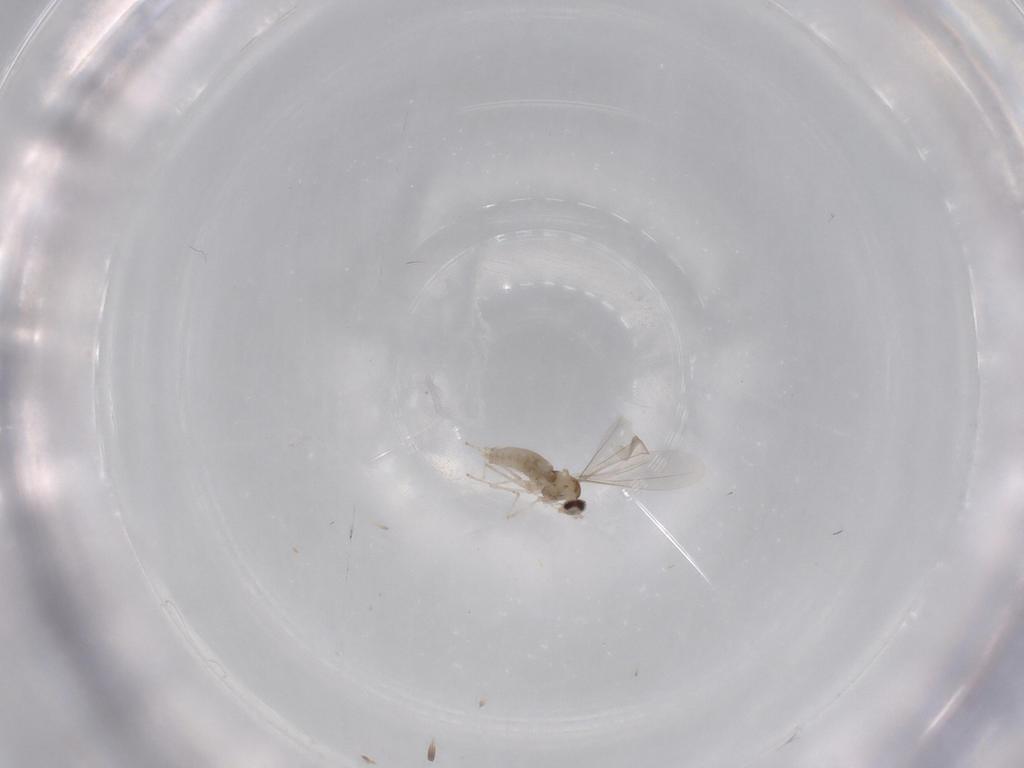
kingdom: Animalia
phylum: Arthropoda
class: Insecta
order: Diptera
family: Cecidomyiidae
